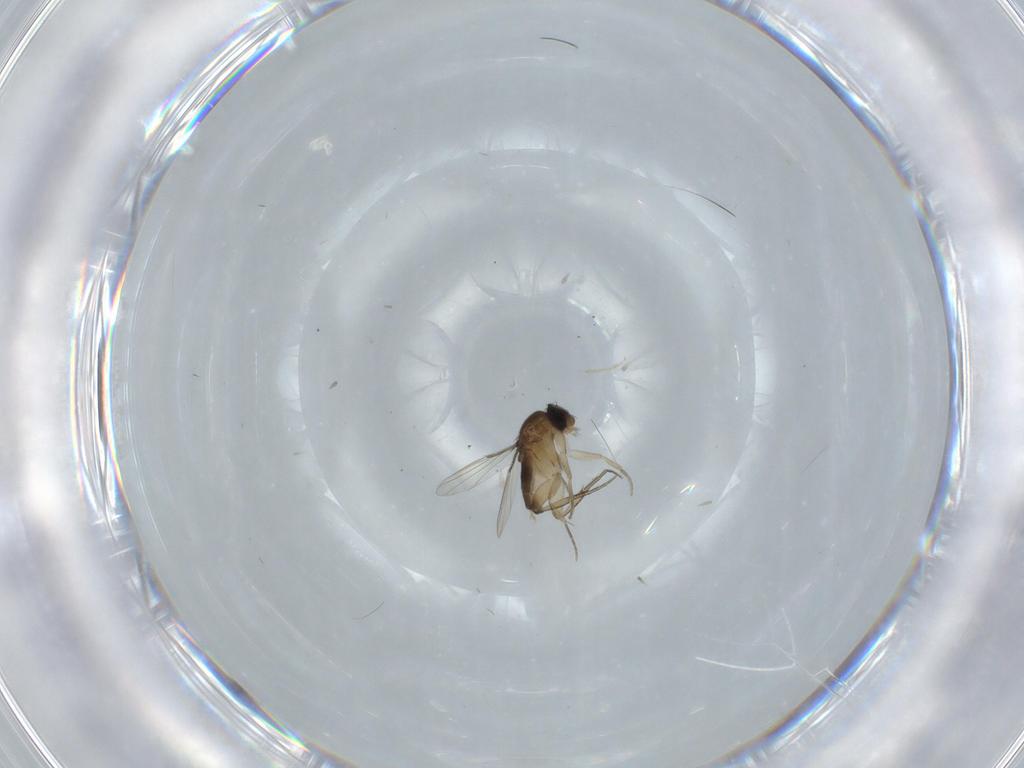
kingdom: Animalia
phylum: Arthropoda
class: Insecta
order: Diptera
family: Phoridae
